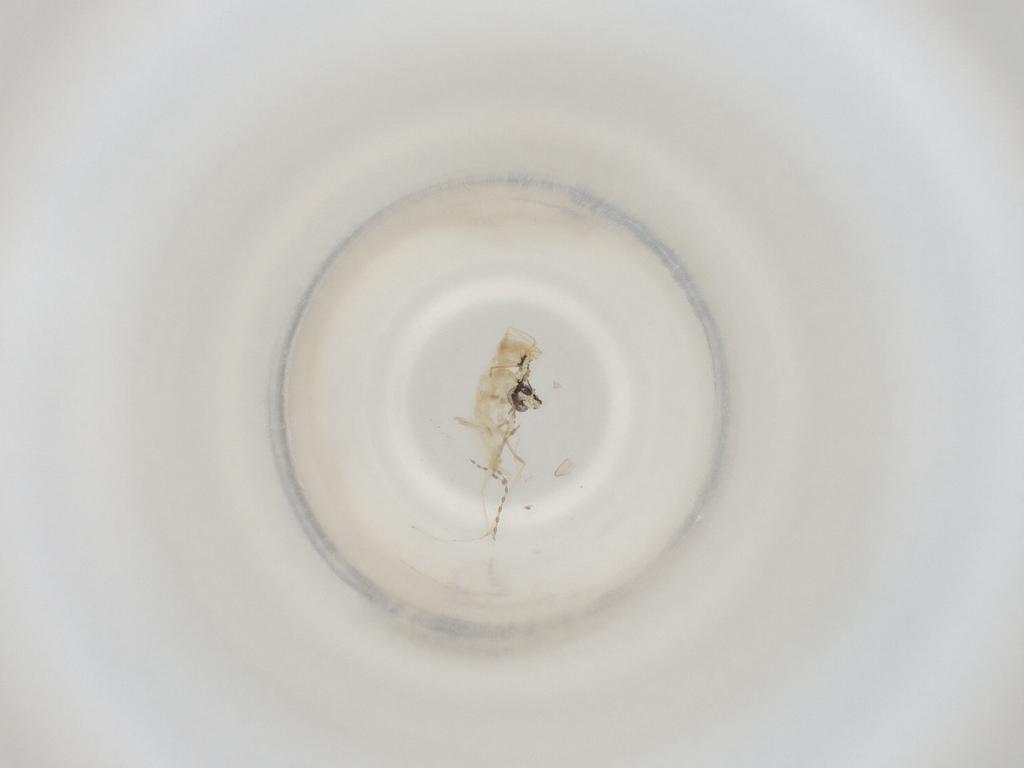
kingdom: Animalia
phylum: Arthropoda
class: Insecta
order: Diptera
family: Cecidomyiidae
